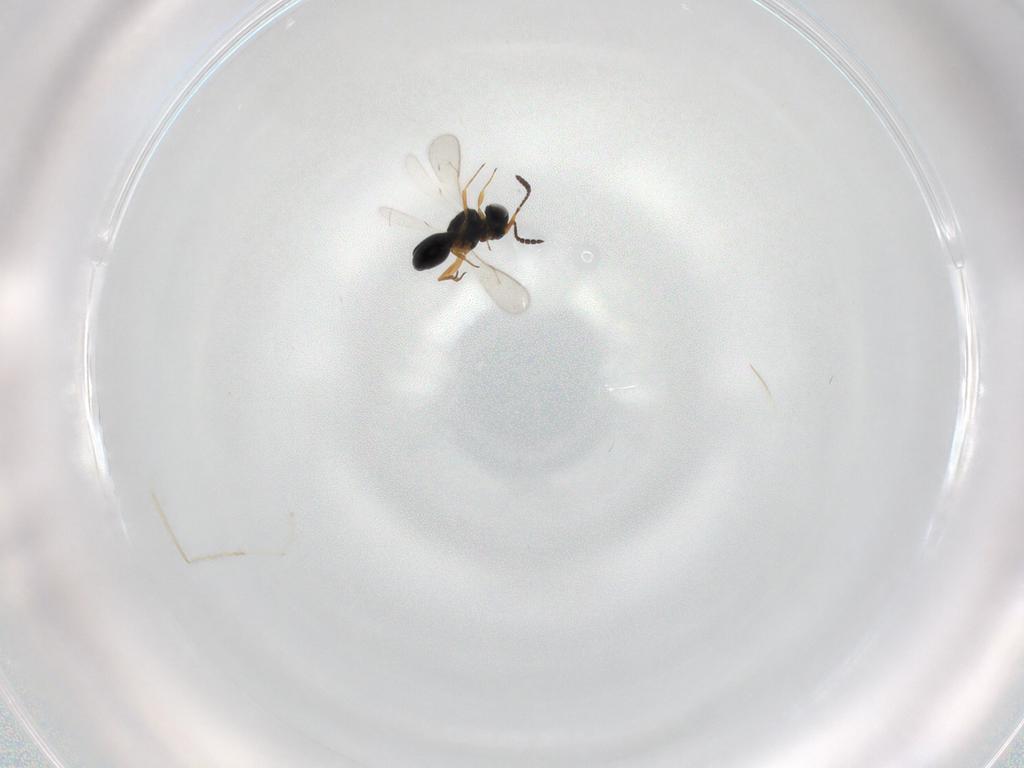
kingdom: Animalia
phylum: Arthropoda
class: Insecta
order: Hymenoptera
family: Scelionidae
